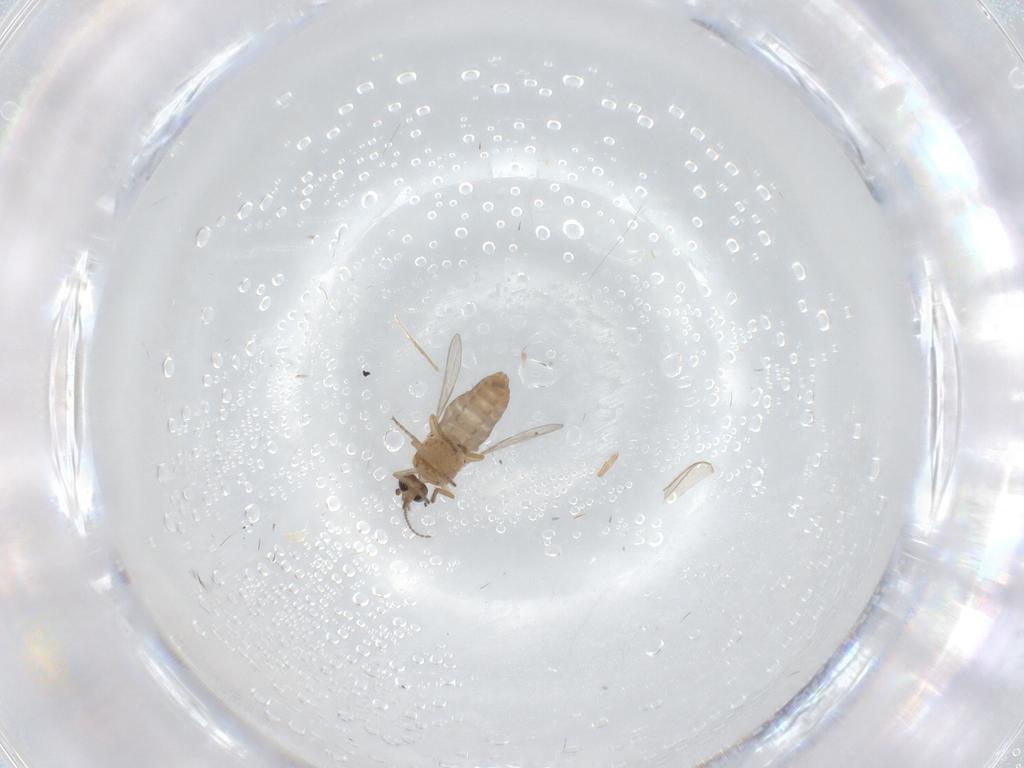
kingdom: Animalia
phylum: Arthropoda
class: Insecta
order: Diptera
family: Ceratopogonidae
